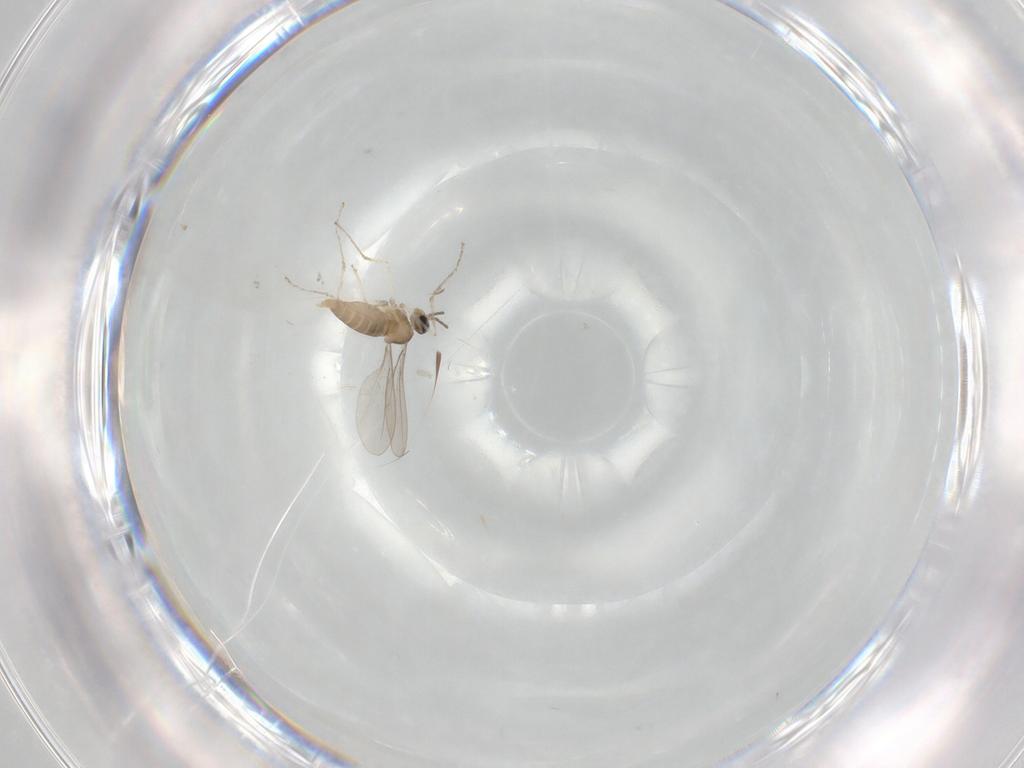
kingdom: Animalia
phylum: Arthropoda
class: Insecta
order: Diptera
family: Cecidomyiidae
